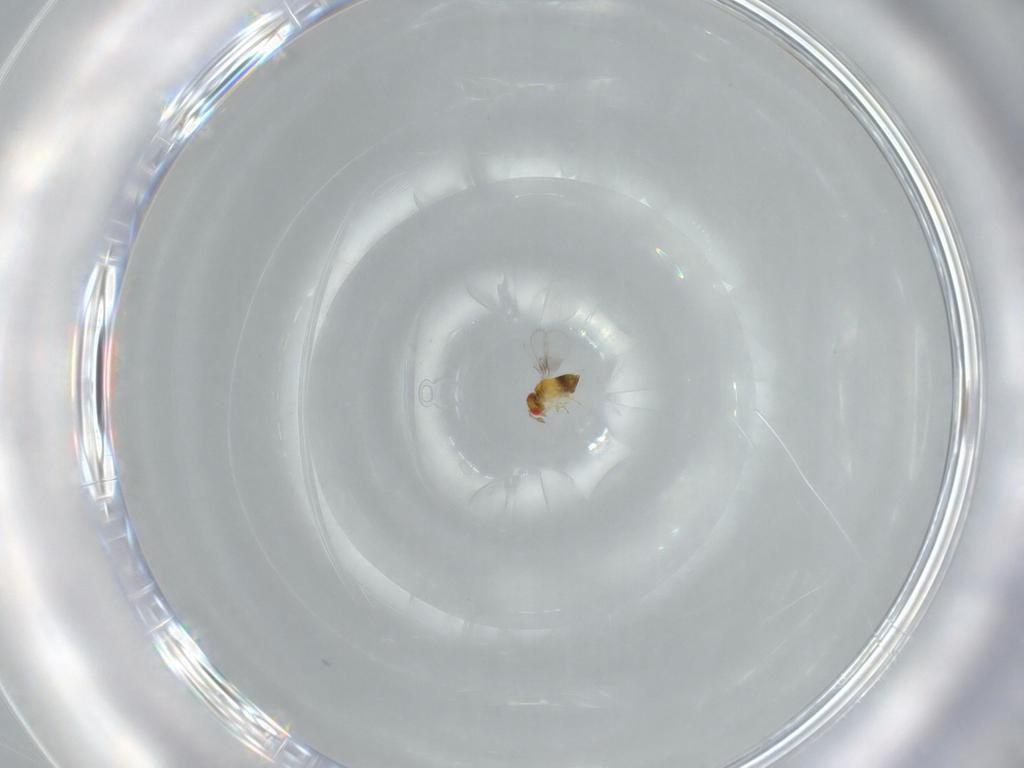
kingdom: Animalia
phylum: Arthropoda
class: Insecta
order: Hymenoptera
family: Trichogrammatidae
